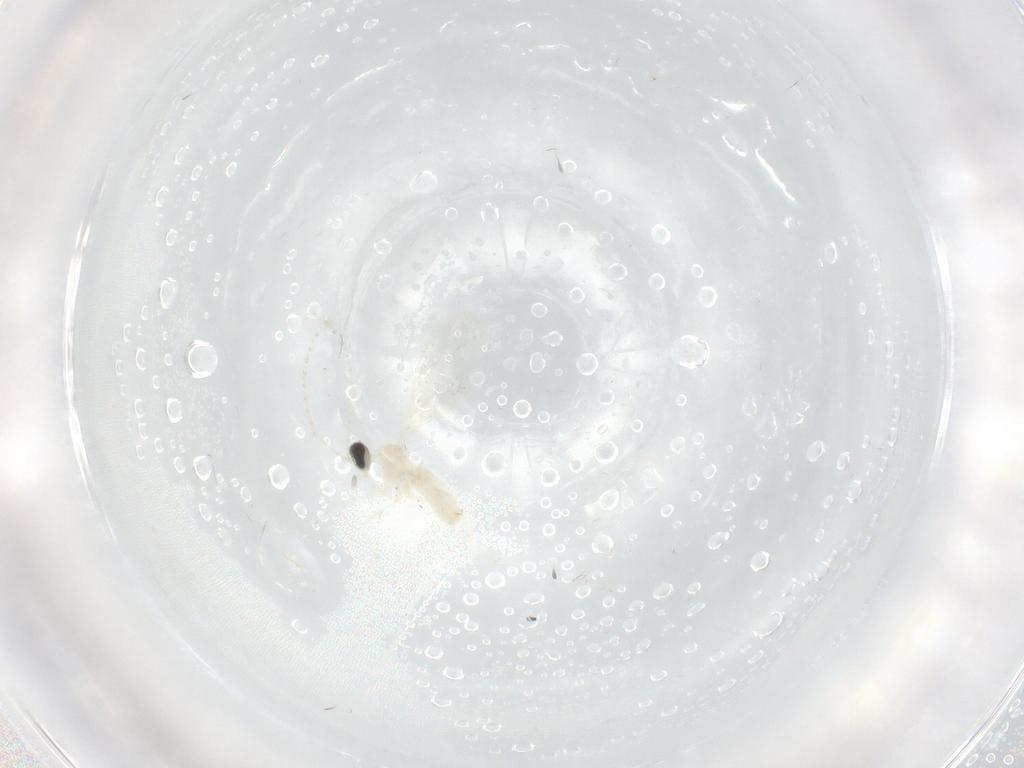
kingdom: Animalia
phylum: Arthropoda
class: Insecta
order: Diptera
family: Cecidomyiidae
